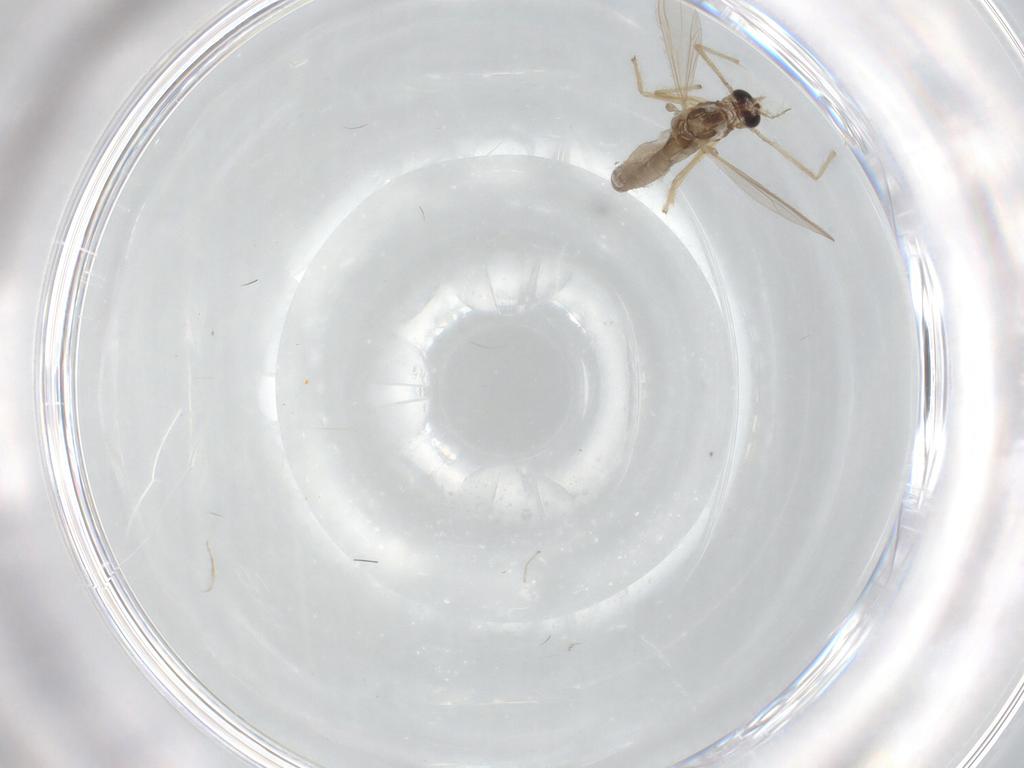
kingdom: Animalia
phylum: Arthropoda
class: Insecta
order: Diptera
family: Chironomidae
